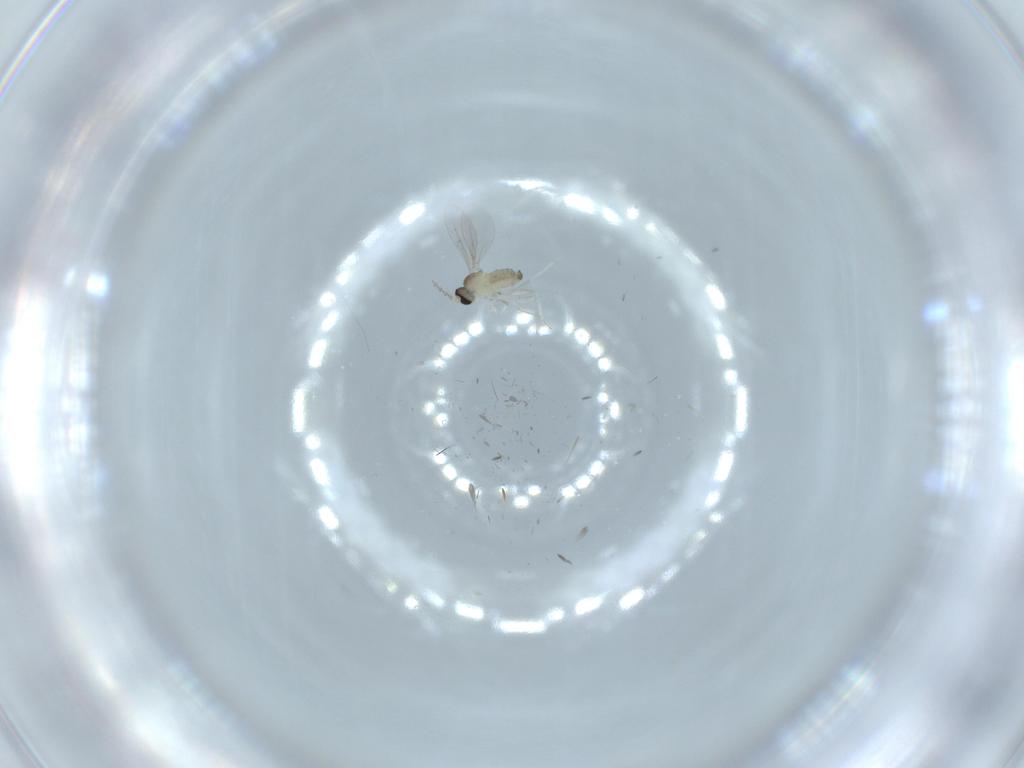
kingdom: Animalia
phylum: Arthropoda
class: Insecta
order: Diptera
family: Cecidomyiidae
